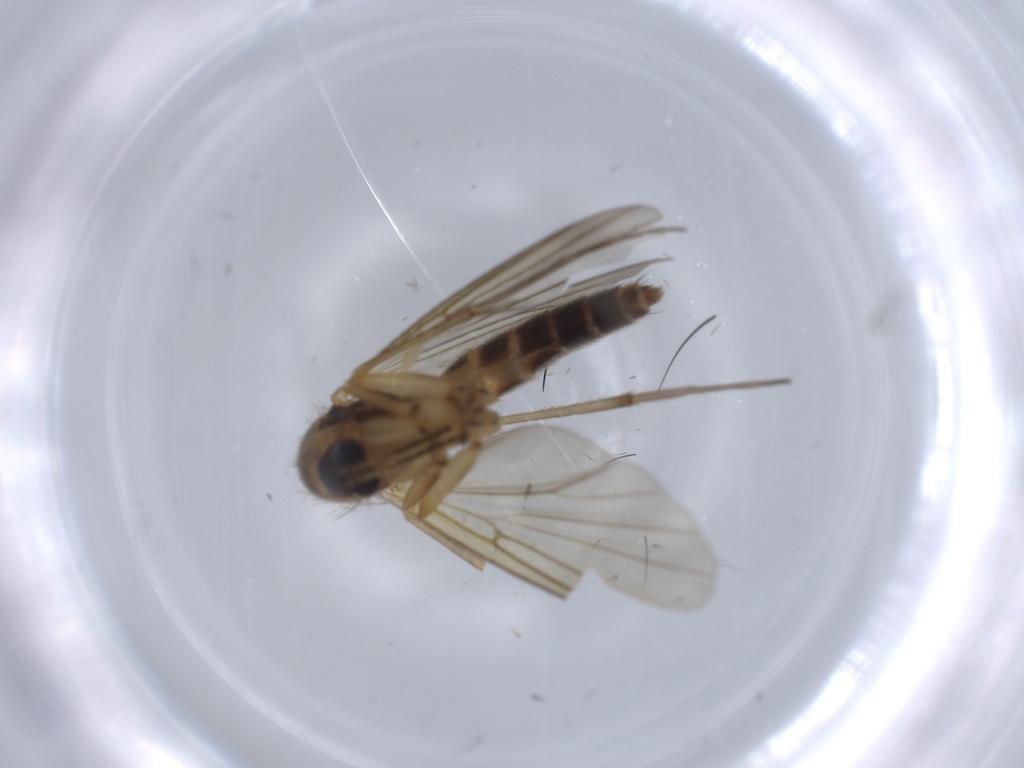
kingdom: Animalia
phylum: Arthropoda
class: Insecta
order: Diptera
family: Mycetophilidae
